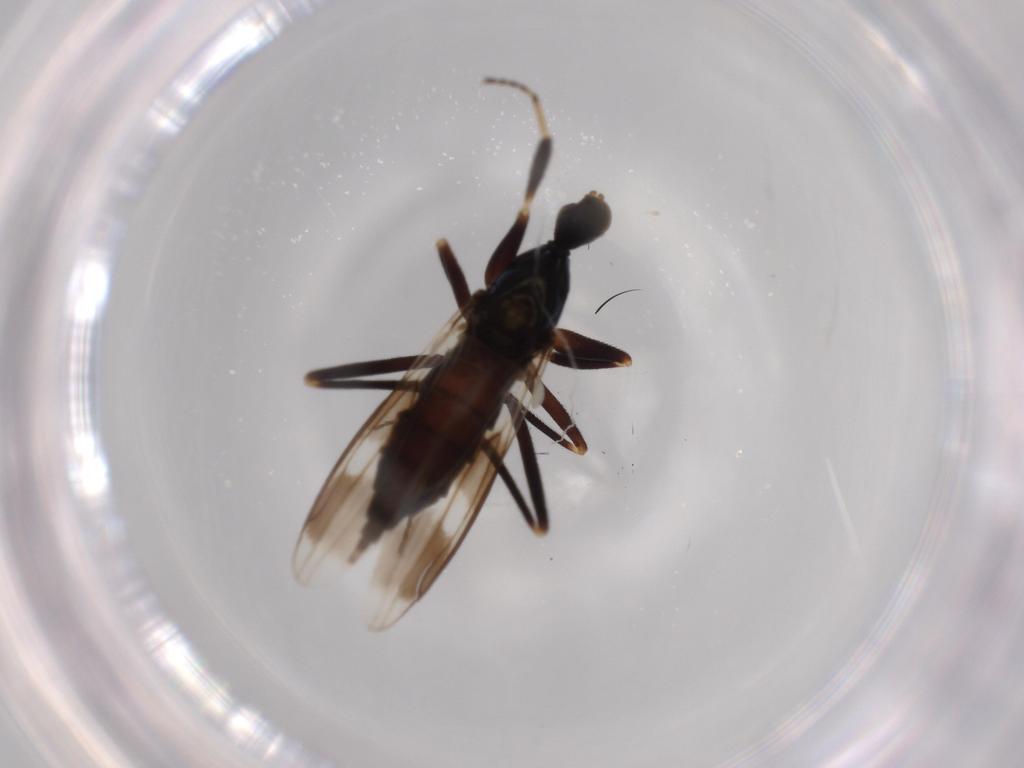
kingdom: Animalia
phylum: Arthropoda
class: Insecta
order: Diptera
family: Hybotidae
